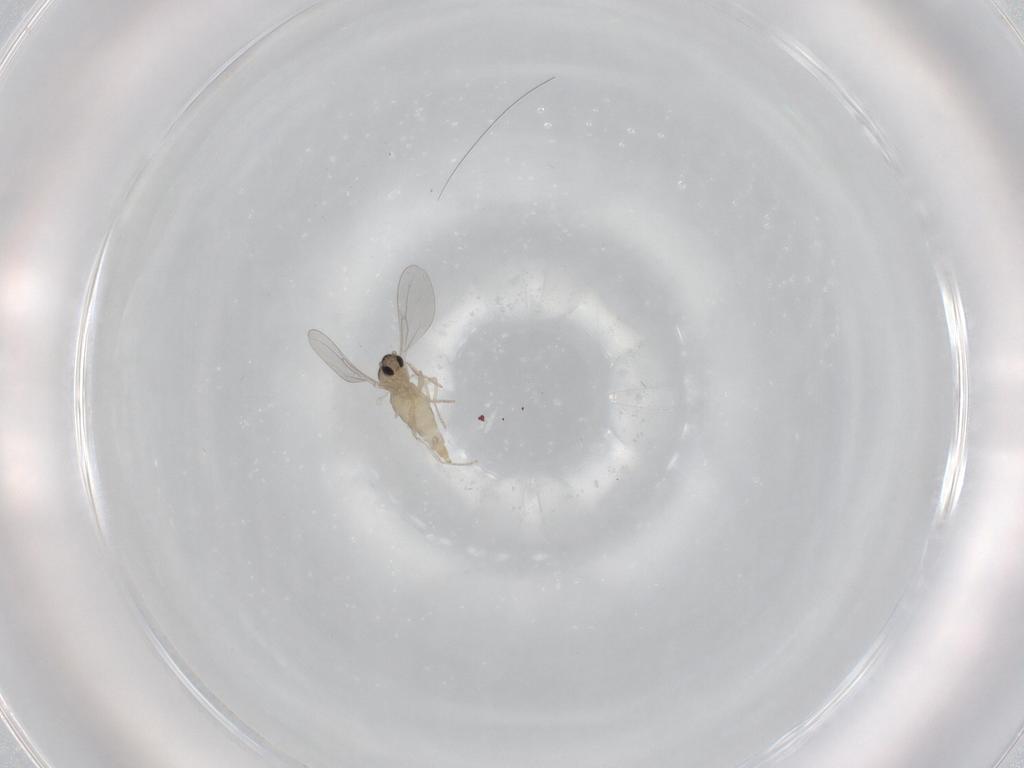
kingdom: Animalia
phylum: Arthropoda
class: Insecta
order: Diptera
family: Cecidomyiidae
